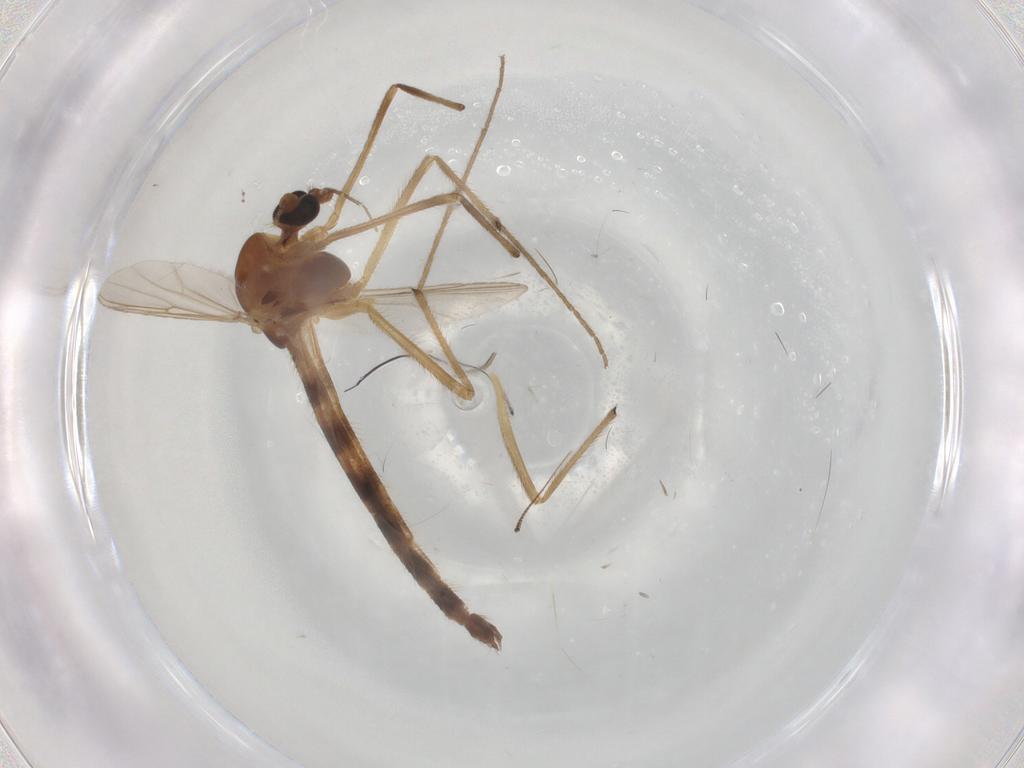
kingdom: Animalia
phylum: Arthropoda
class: Insecta
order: Diptera
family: Chironomidae
